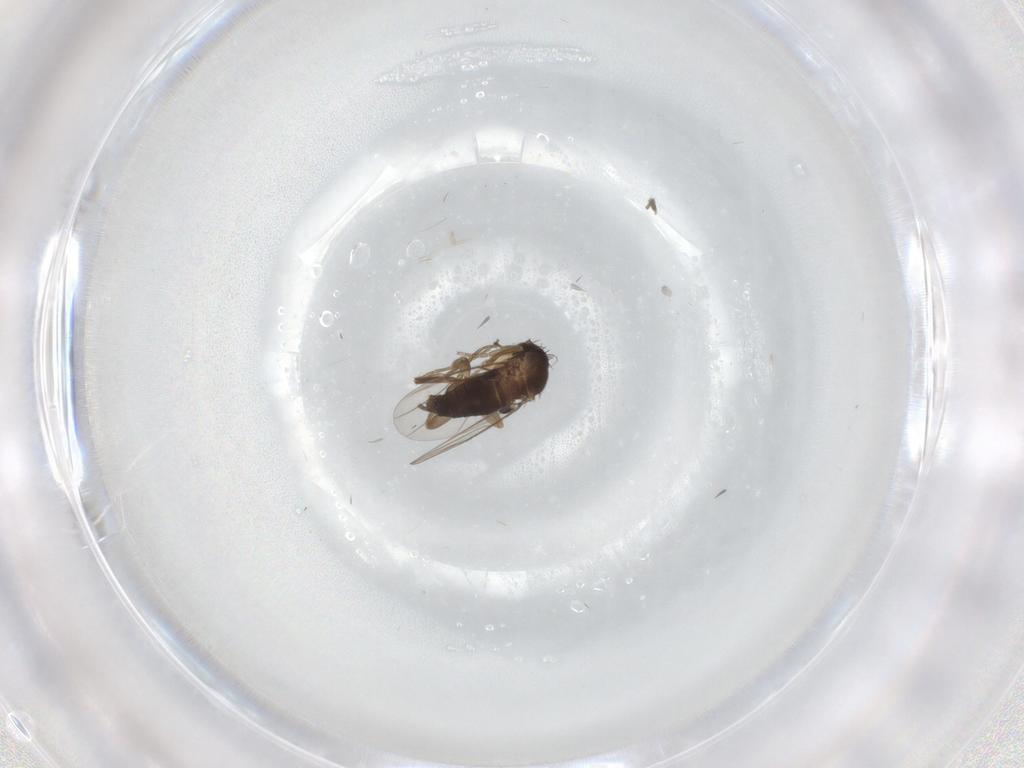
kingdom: Animalia
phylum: Arthropoda
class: Insecta
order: Diptera
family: Phoridae
